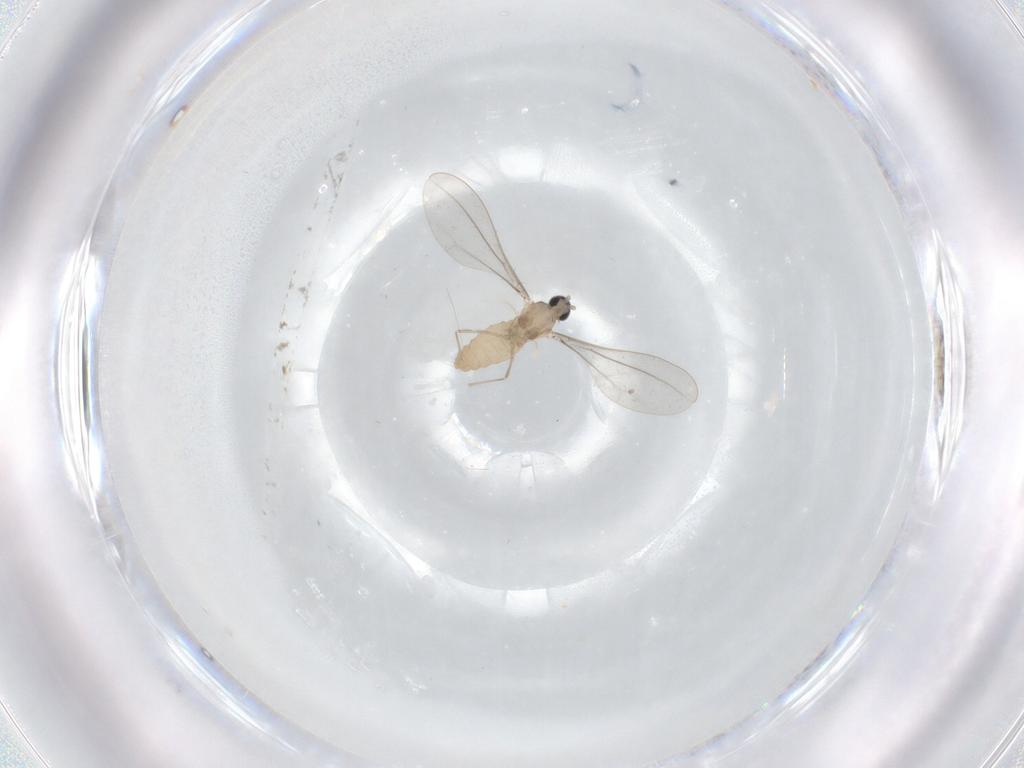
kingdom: Animalia
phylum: Arthropoda
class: Insecta
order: Diptera
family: Cecidomyiidae
